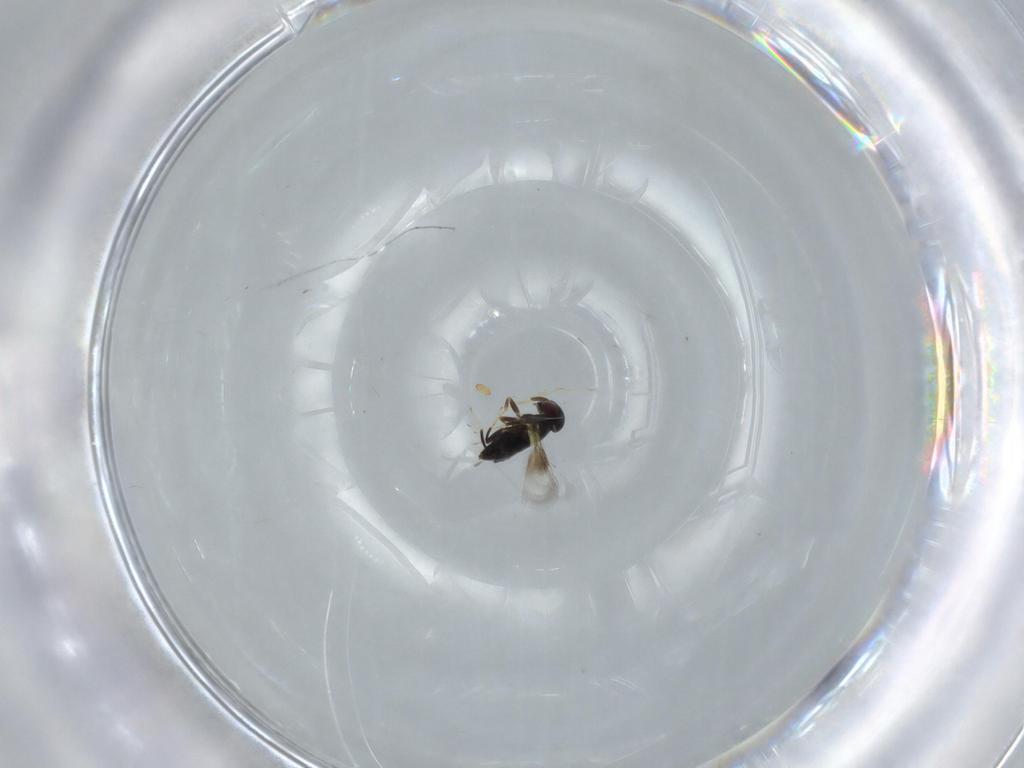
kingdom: Animalia
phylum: Arthropoda
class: Insecta
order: Hymenoptera
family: Signiphoridae
